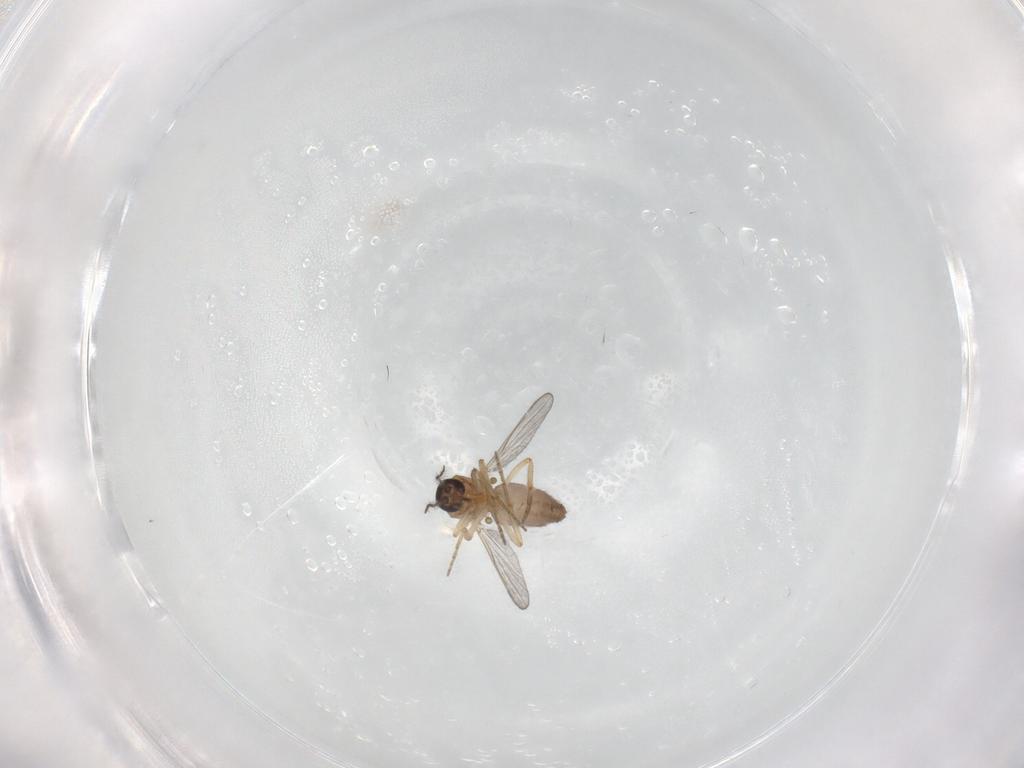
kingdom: Animalia
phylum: Arthropoda
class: Insecta
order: Diptera
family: Ceratopogonidae
